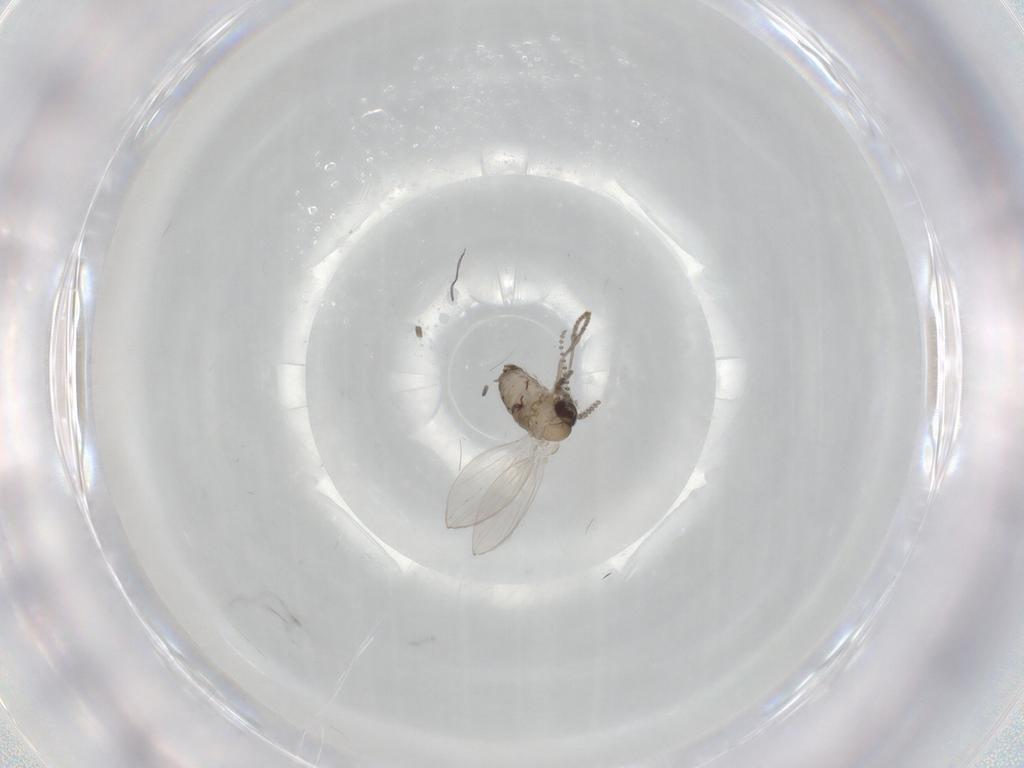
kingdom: Animalia
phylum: Arthropoda
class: Insecta
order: Diptera
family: Psychodidae
